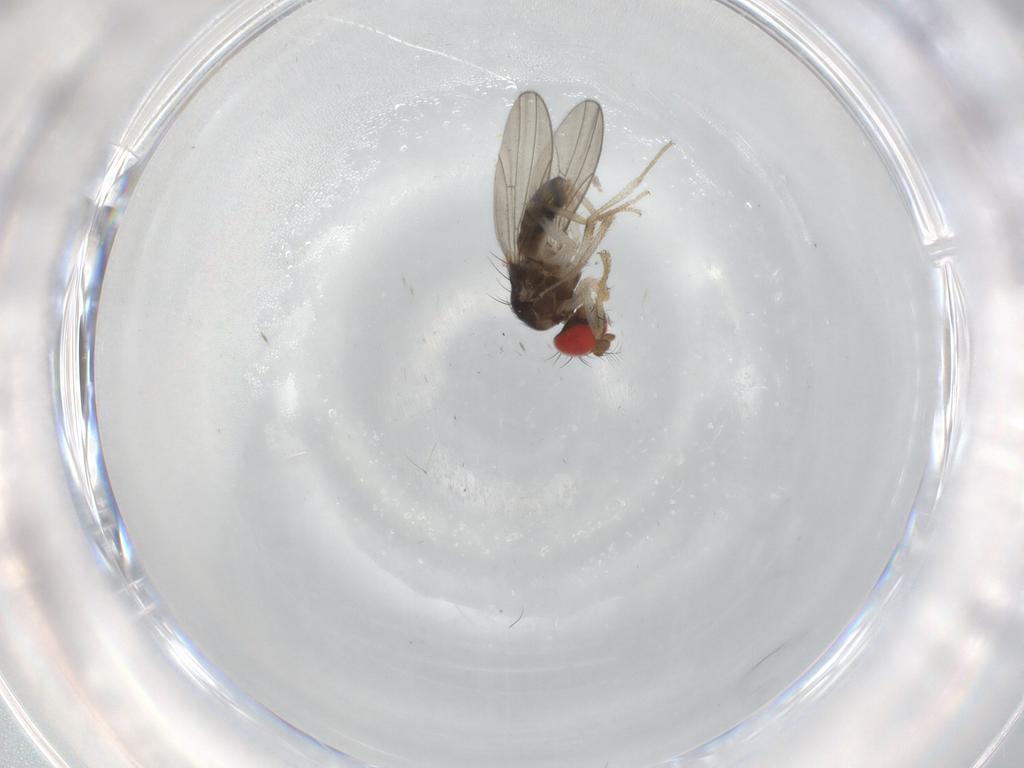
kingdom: Animalia
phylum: Arthropoda
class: Insecta
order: Diptera
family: Drosophilidae
